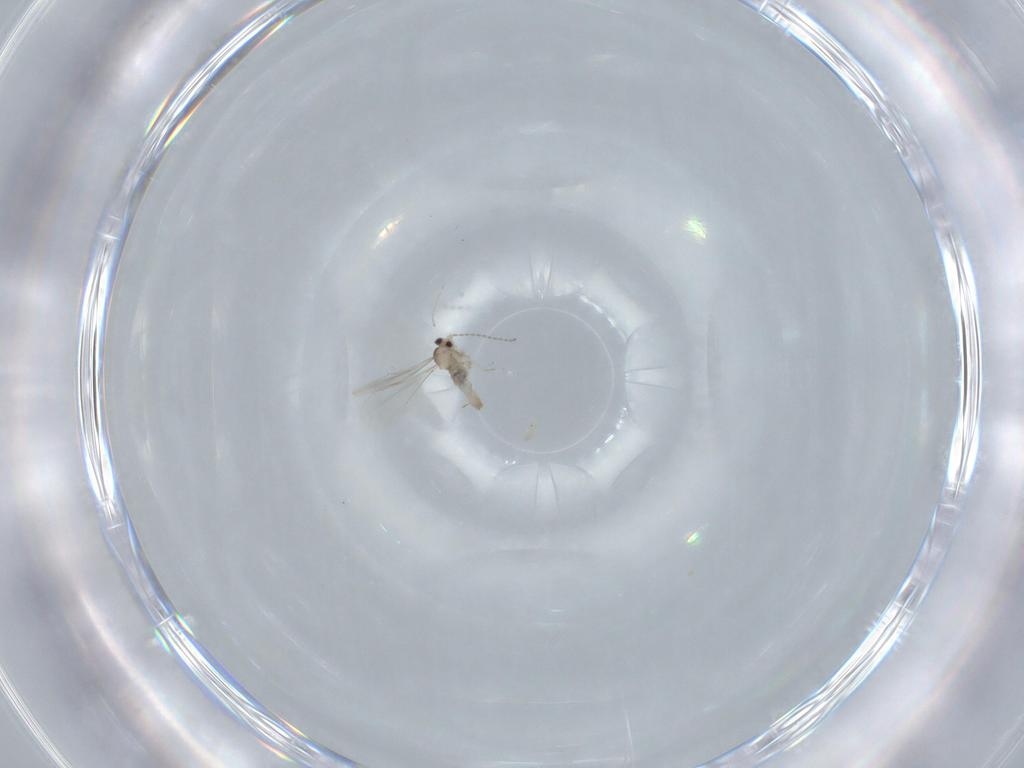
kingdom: Animalia
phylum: Arthropoda
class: Insecta
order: Diptera
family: Cecidomyiidae
